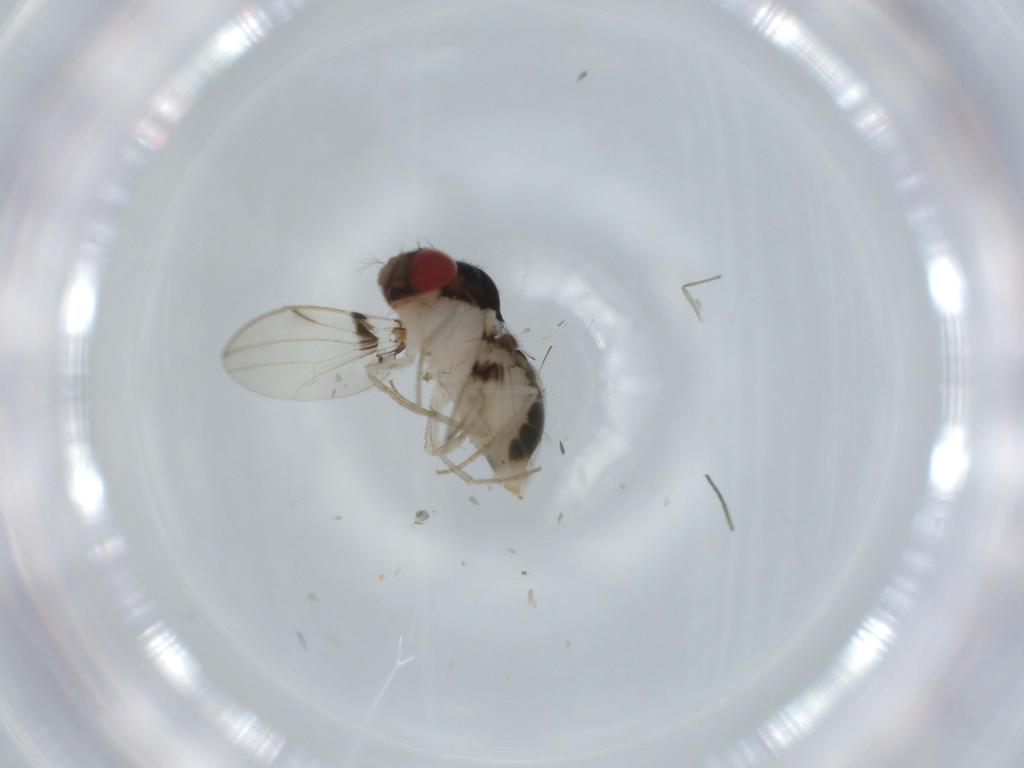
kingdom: Animalia
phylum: Arthropoda
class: Insecta
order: Diptera
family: Drosophilidae
